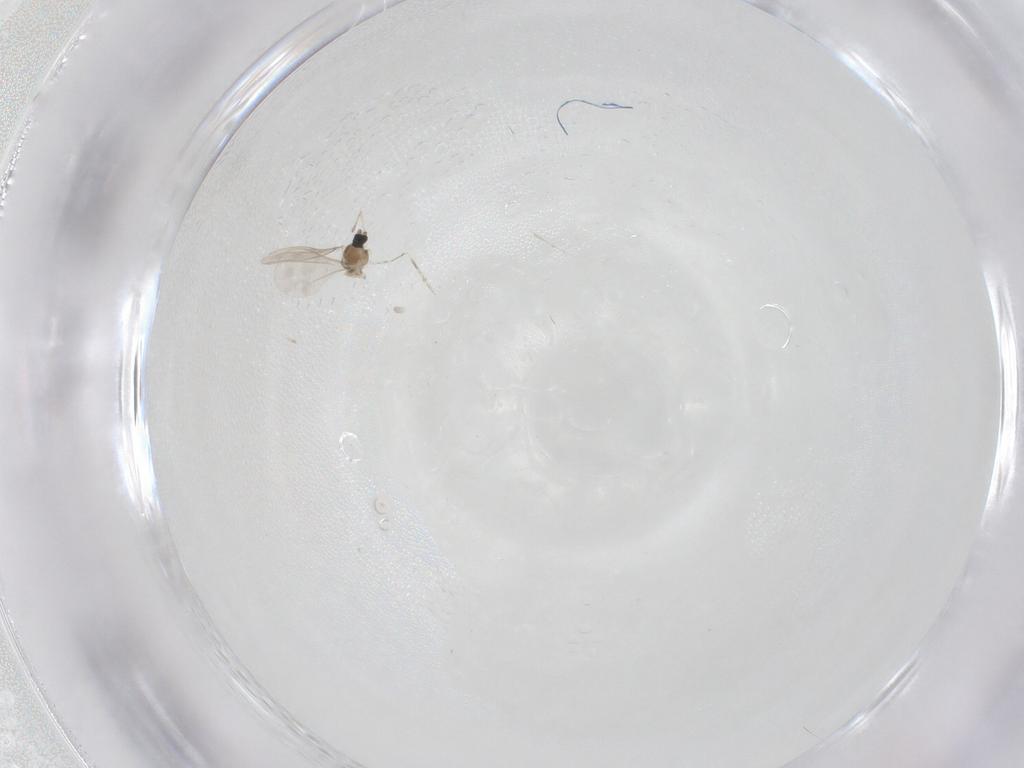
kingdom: Animalia
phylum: Arthropoda
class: Insecta
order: Diptera
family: Cecidomyiidae
